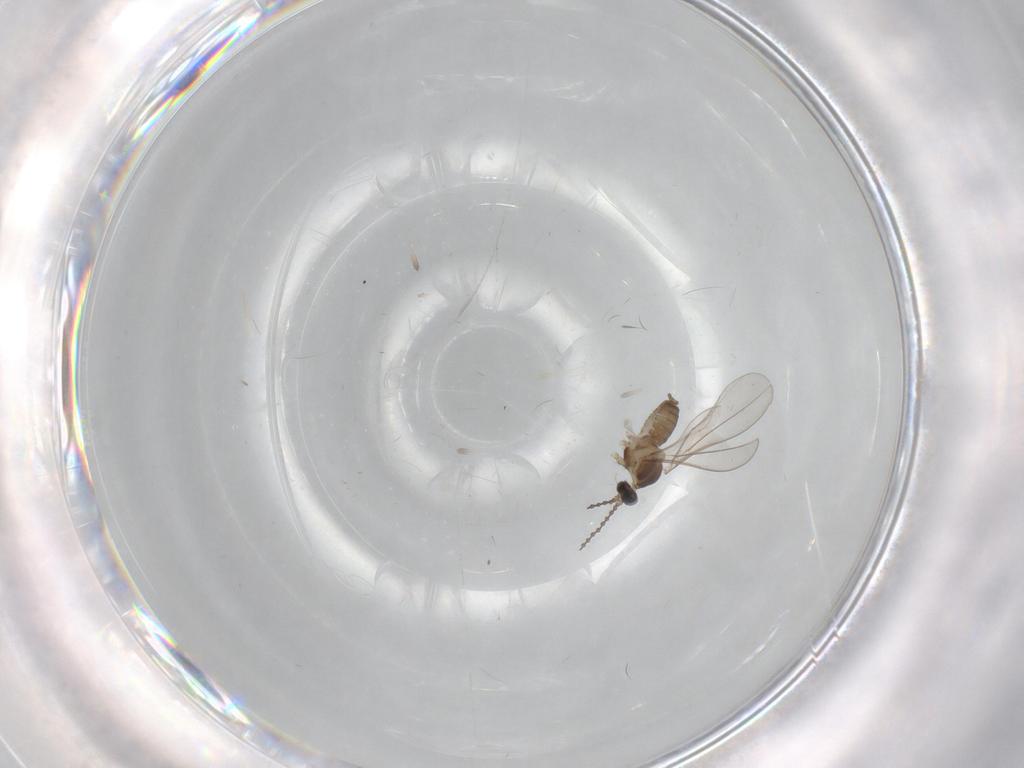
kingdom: Animalia
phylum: Arthropoda
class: Insecta
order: Diptera
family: Cecidomyiidae
